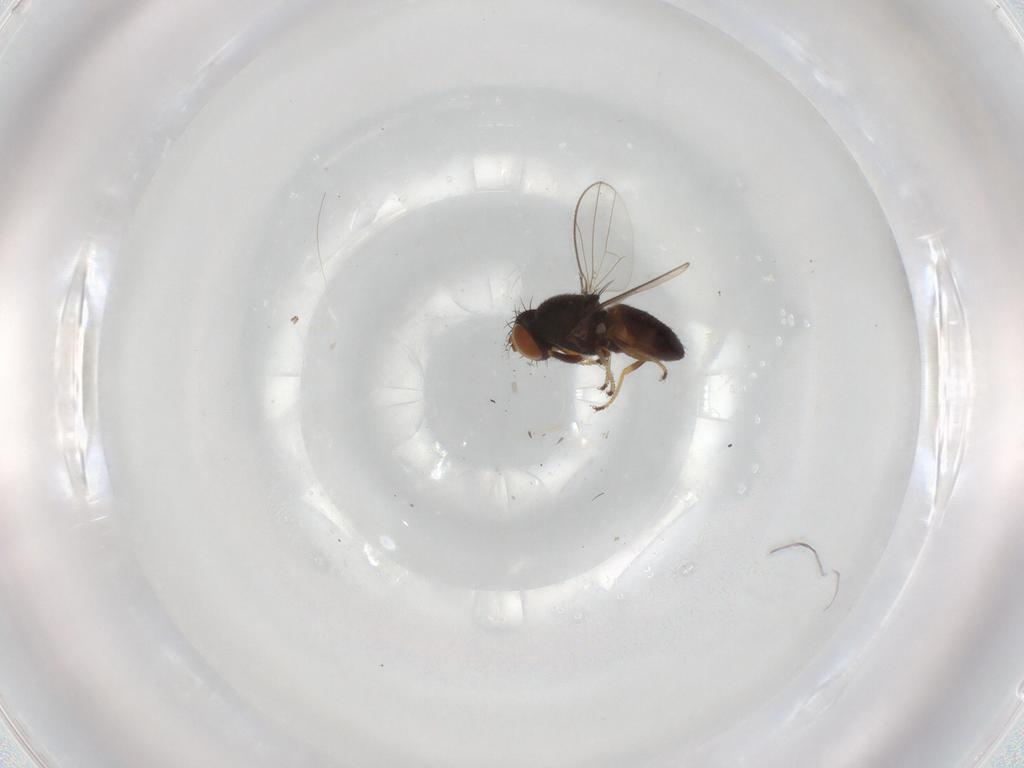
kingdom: Animalia
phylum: Arthropoda
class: Insecta
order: Diptera
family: Ephydridae
